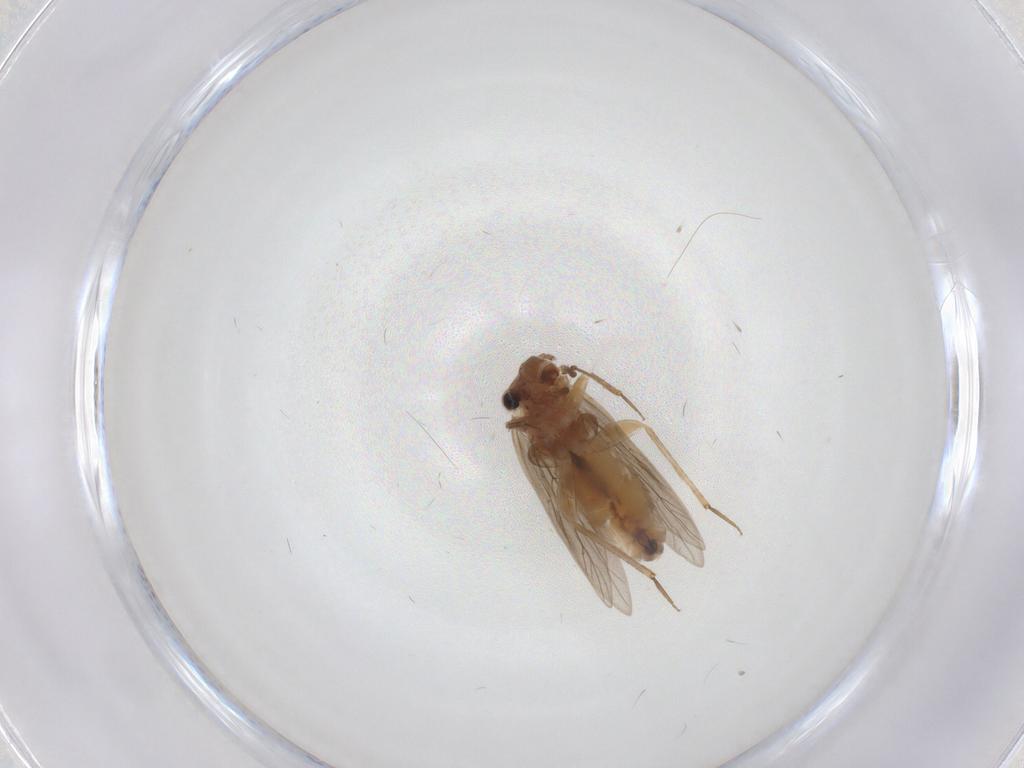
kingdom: Animalia
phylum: Arthropoda
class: Insecta
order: Psocodea
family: Lepidopsocidae
